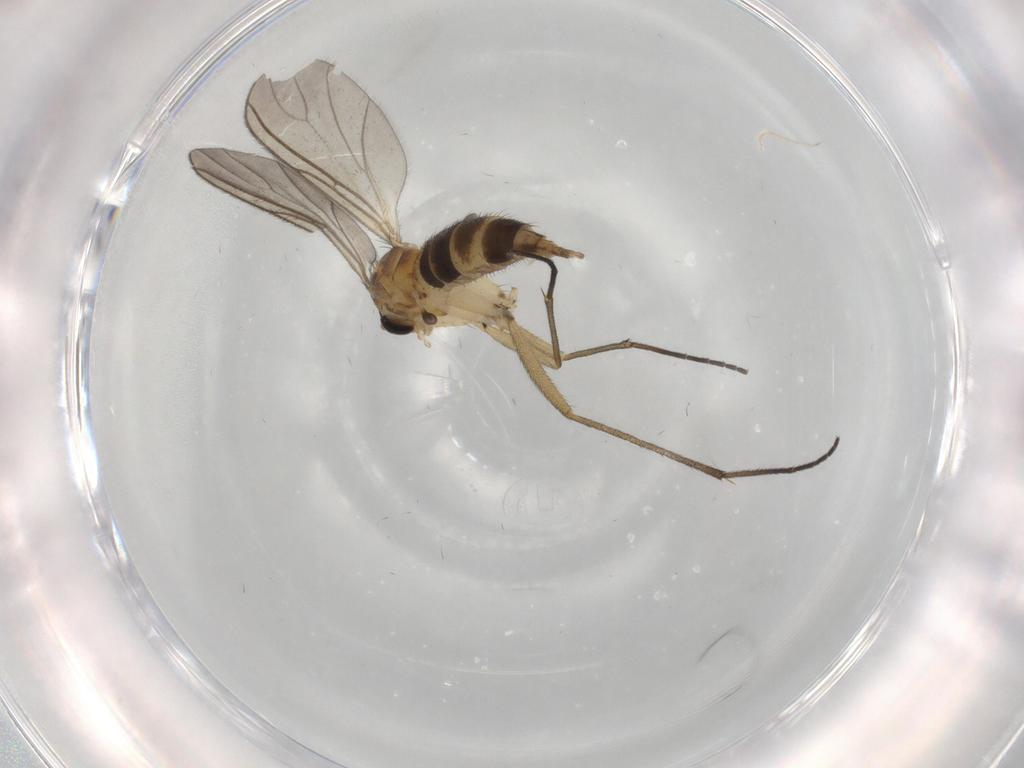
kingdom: Animalia
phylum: Arthropoda
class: Insecta
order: Diptera
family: Sciaridae
